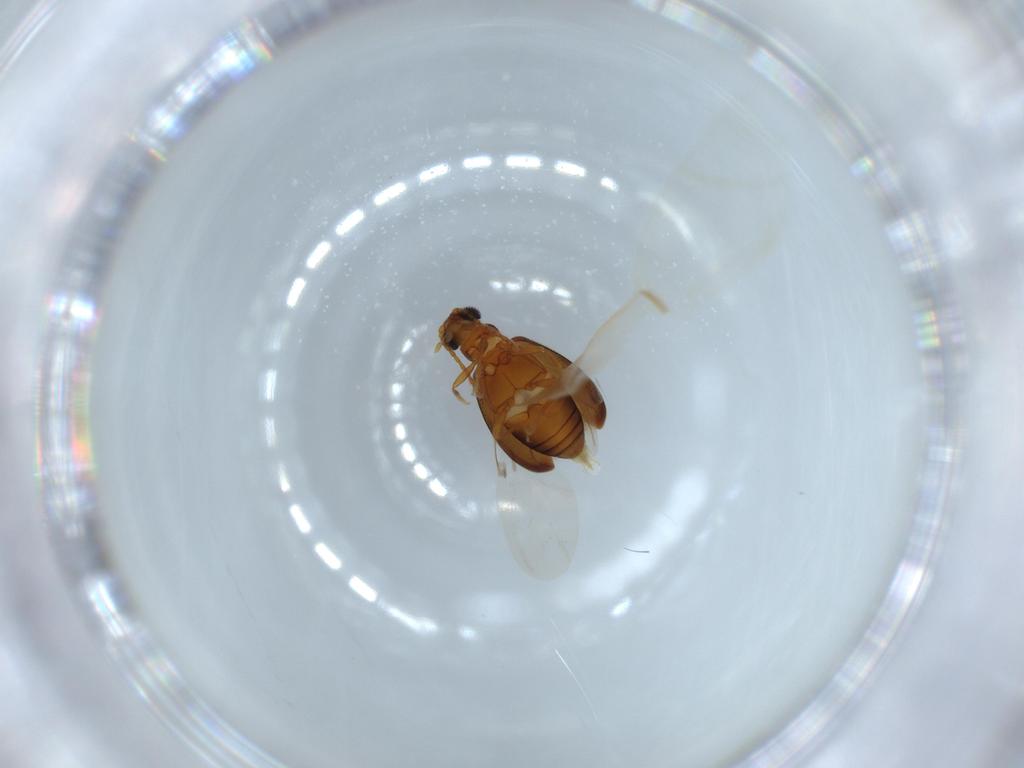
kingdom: Animalia
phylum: Arthropoda
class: Insecta
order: Coleoptera
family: Aderidae
